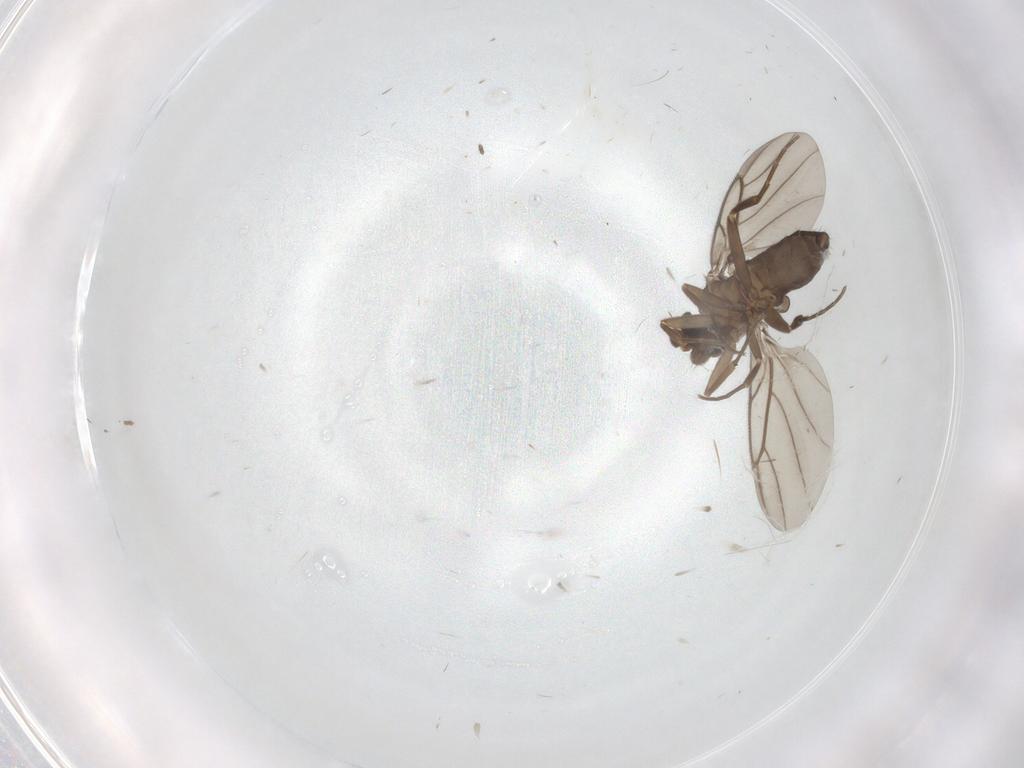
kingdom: Animalia
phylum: Arthropoda
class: Insecta
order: Diptera
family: Phoridae
